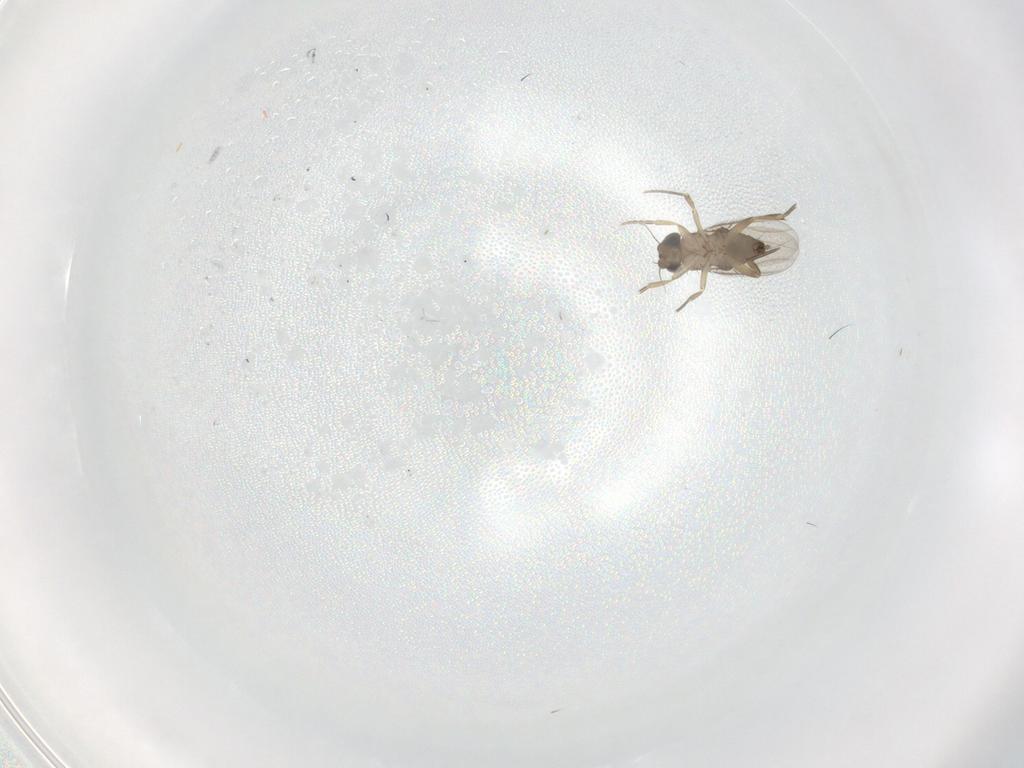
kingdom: Animalia
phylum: Arthropoda
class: Insecta
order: Diptera
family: Phoridae
